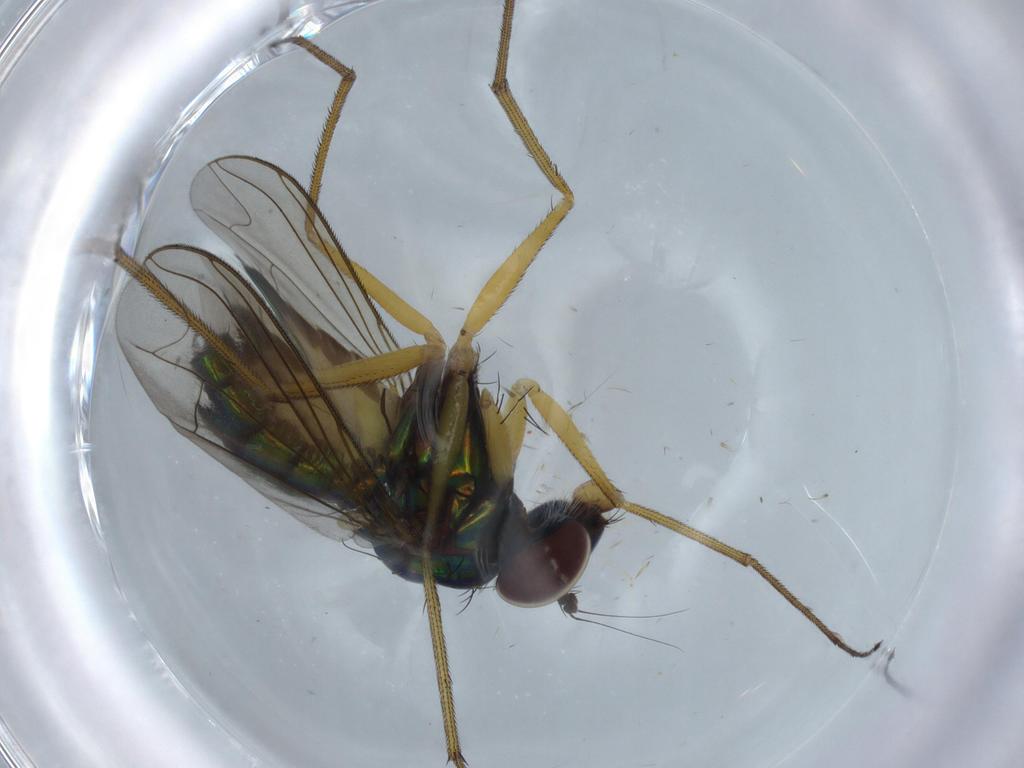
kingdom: Animalia
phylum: Arthropoda
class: Insecta
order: Diptera
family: Dolichopodidae
